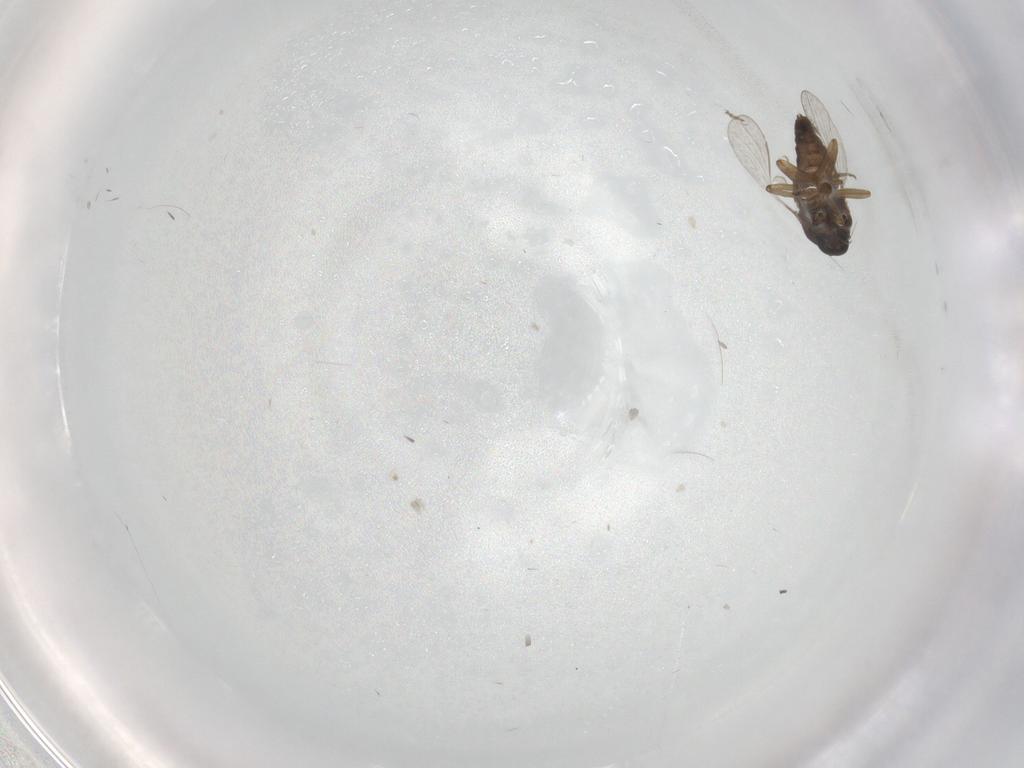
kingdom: Animalia
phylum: Arthropoda
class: Insecta
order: Diptera
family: Ceratopogonidae
